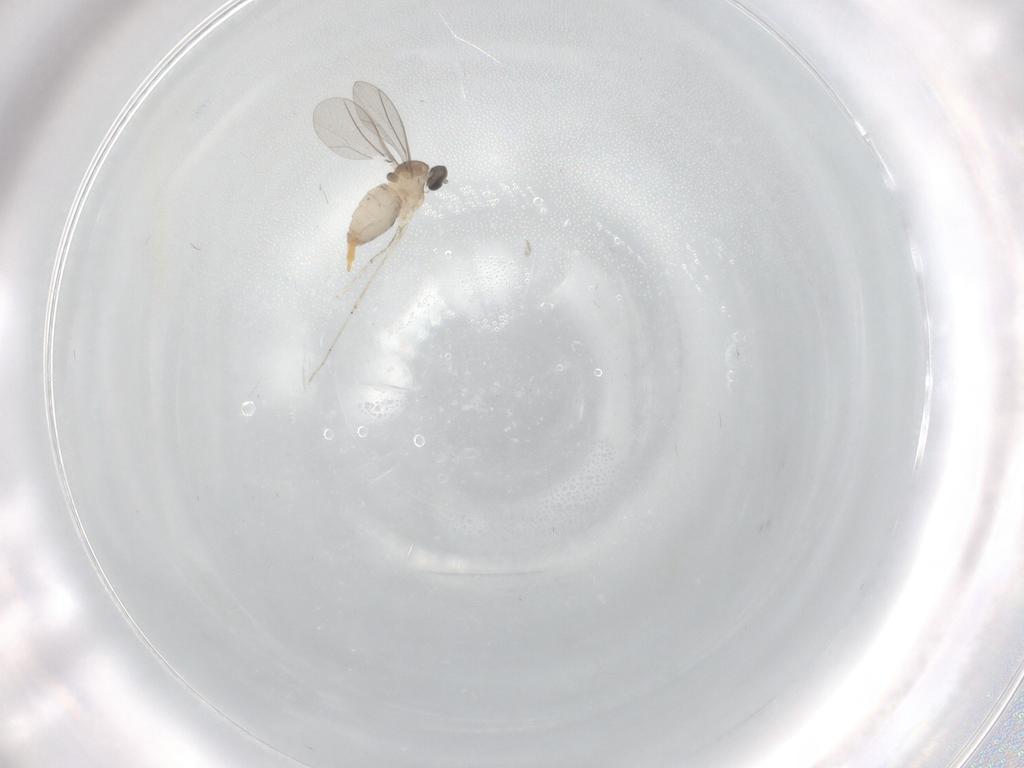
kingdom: Animalia
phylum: Arthropoda
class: Insecta
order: Diptera
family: Cecidomyiidae
